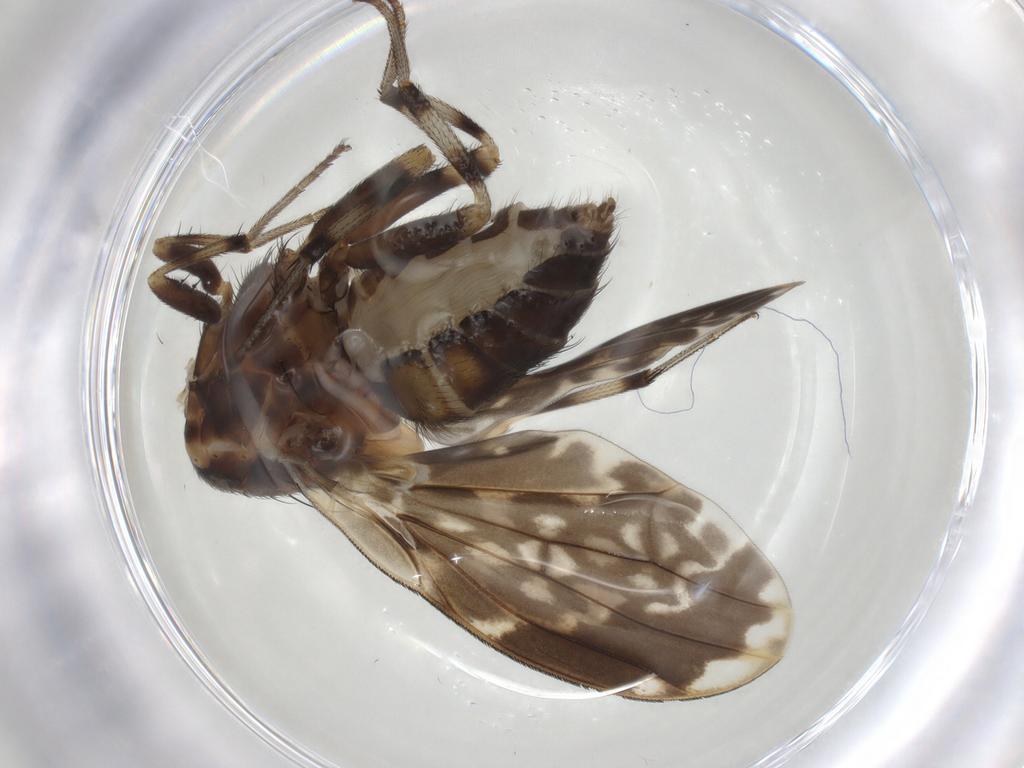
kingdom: Animalia
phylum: Arthropoda
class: Insecta
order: Diptera
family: Lauxaniidae
